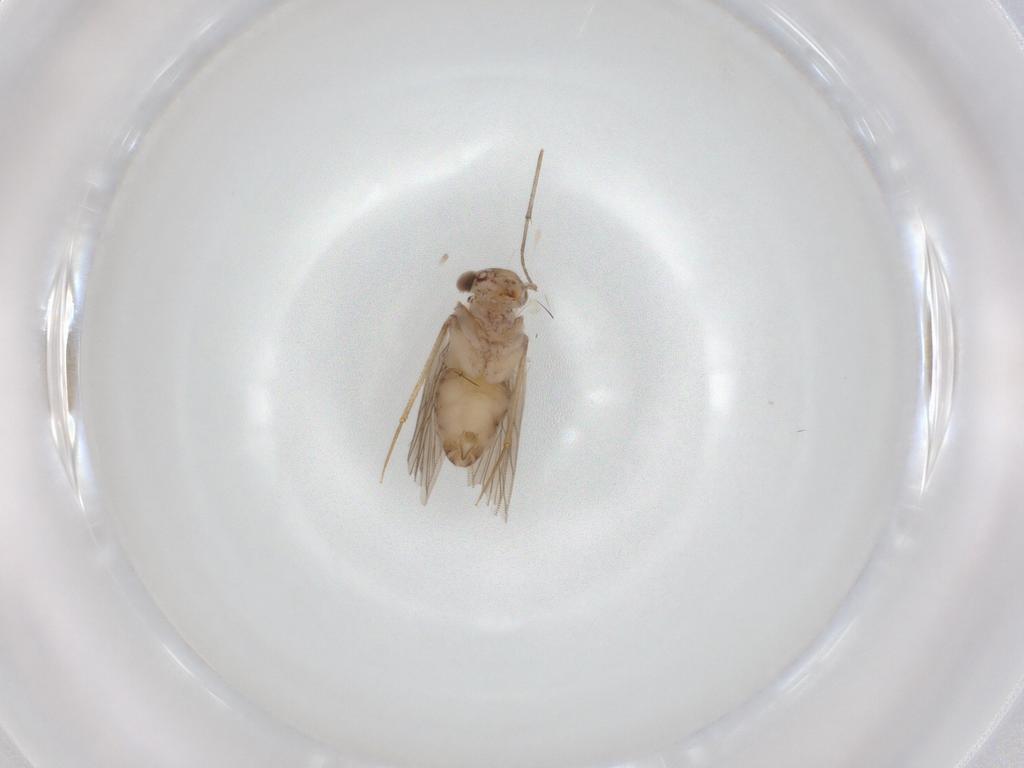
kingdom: Animalia
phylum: Arthropoda
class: Insecta
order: Psocodea
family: Lepidopsocidae
